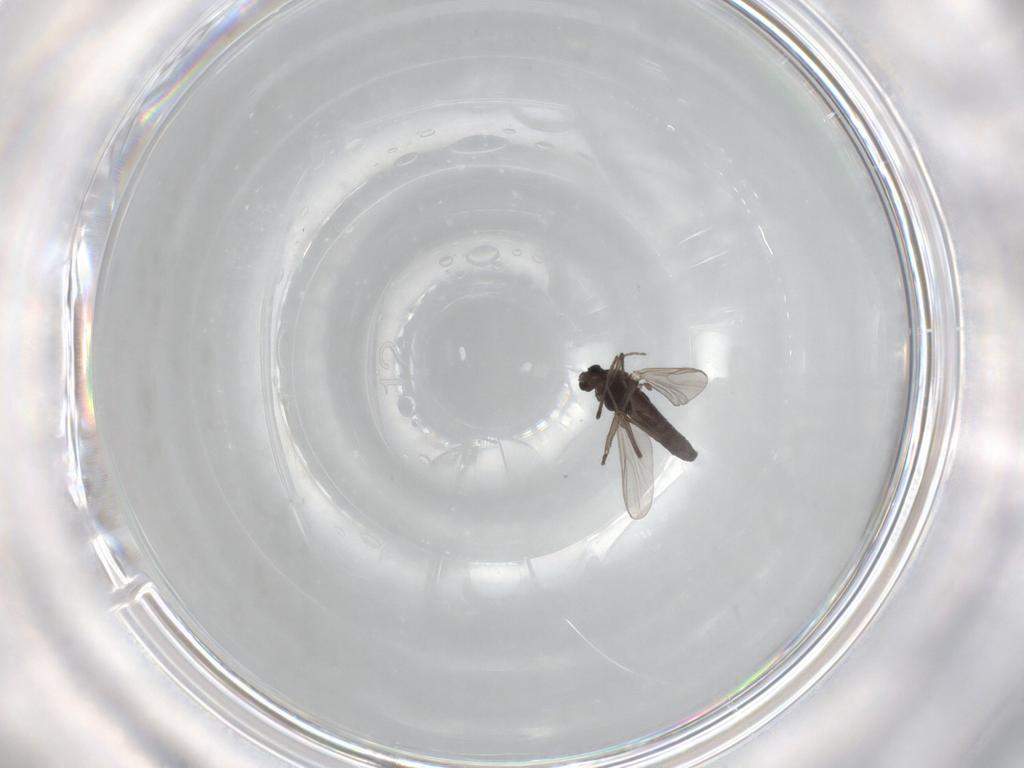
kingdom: Animalia
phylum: Arthropoda
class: Insecta
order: Diptera
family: Chironomidae
